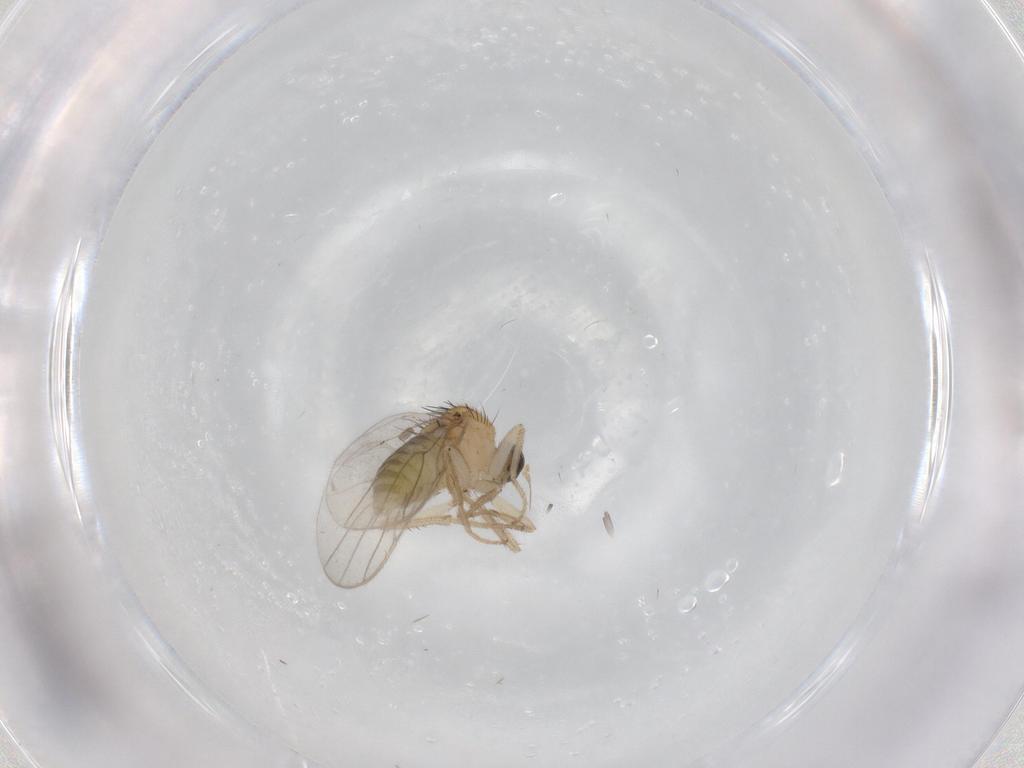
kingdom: Animalia
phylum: Arthropoda
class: Insecta
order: Diptera
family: Hybotidae
